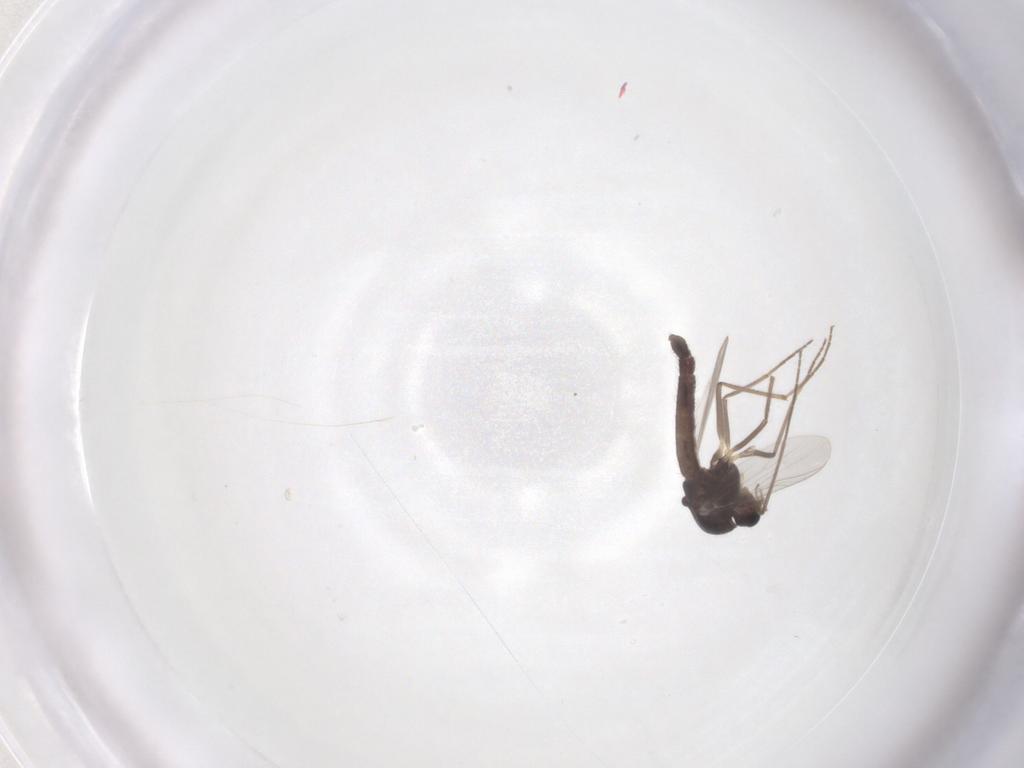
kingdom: Animalia
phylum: Arthropoda
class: Insecta
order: Diptera
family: Chironomidae
